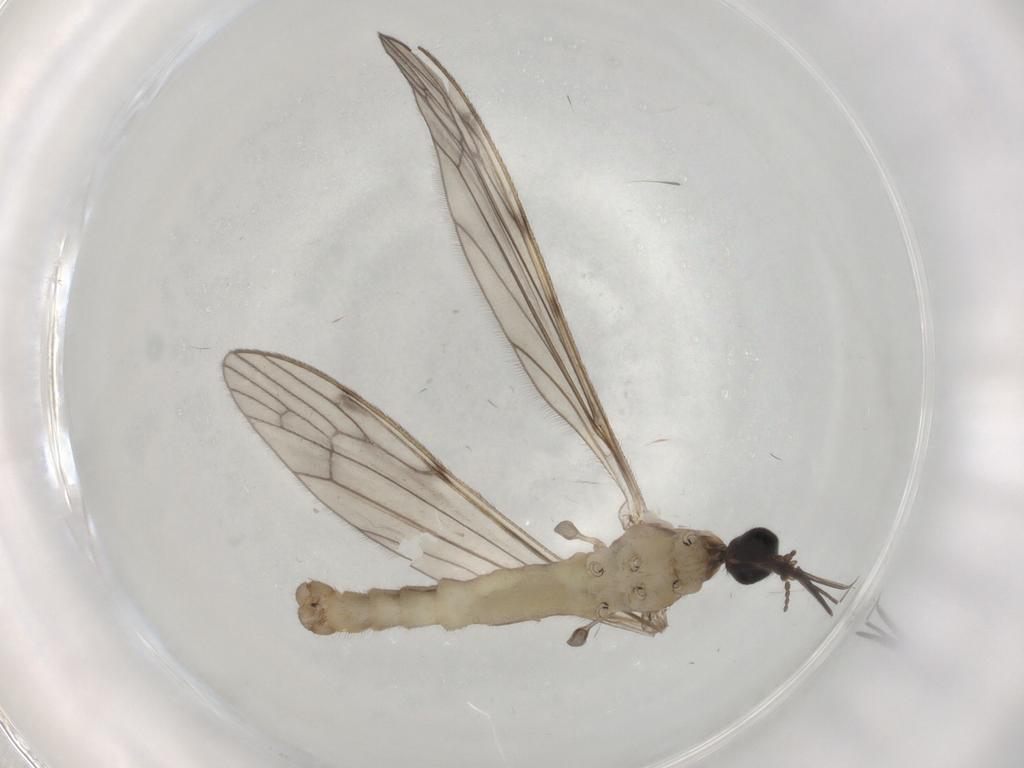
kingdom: Animalia
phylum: Arthropoda
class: Insecta
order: Diptera
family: Limoniidae
